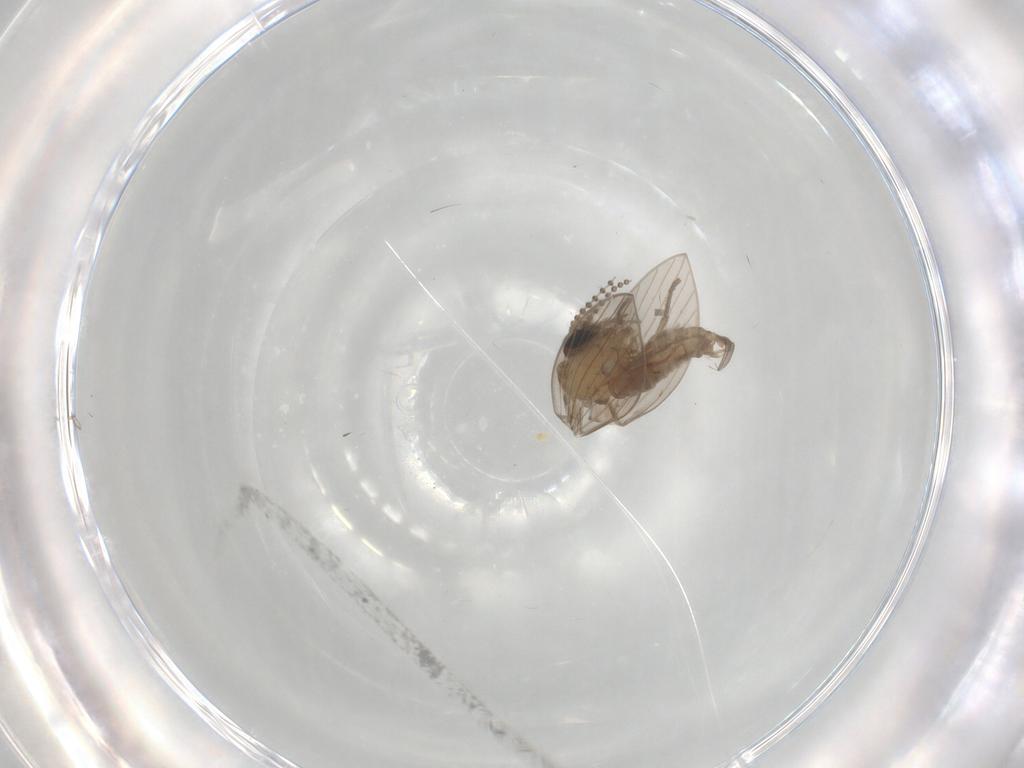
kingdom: Animalia
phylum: Arthropoda
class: Insecta
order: Diptera
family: Psychodidae
